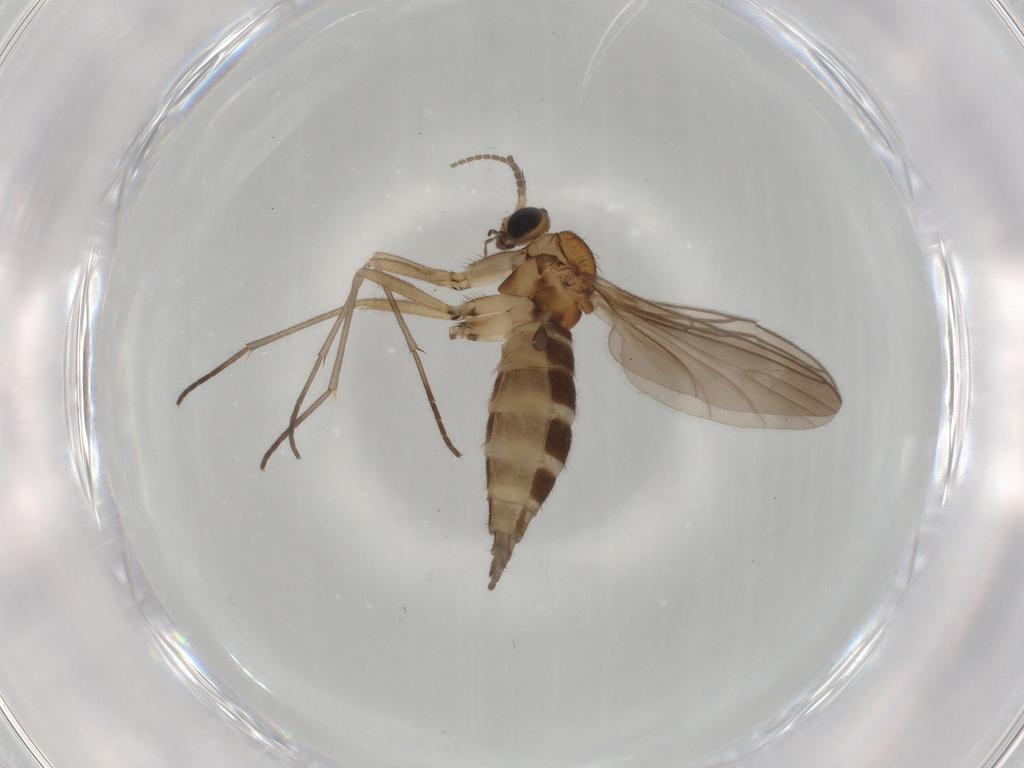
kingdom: Animalia
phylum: Arthropoda
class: Insecta
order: Diptera
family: Sciaridae
